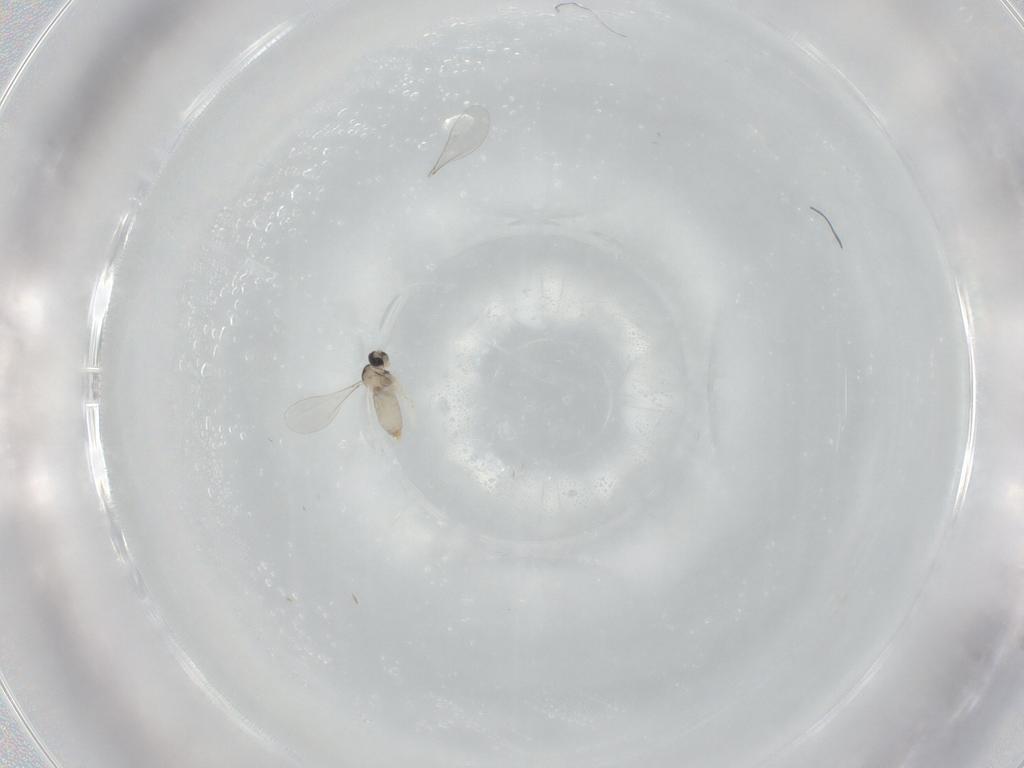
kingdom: Animalia
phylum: Arthropoda
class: Insecta
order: Diptera
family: Cecidomyiidae
